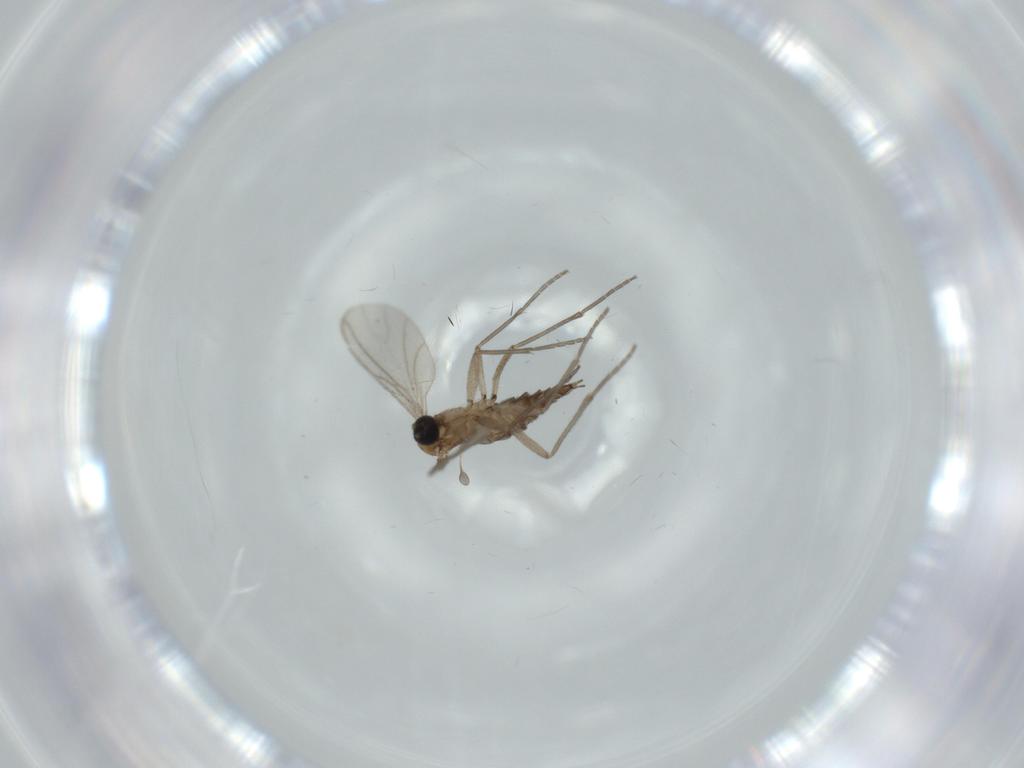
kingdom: Animalia
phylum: Arthropoda
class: Insecta
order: Diptera
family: Sciaridae
